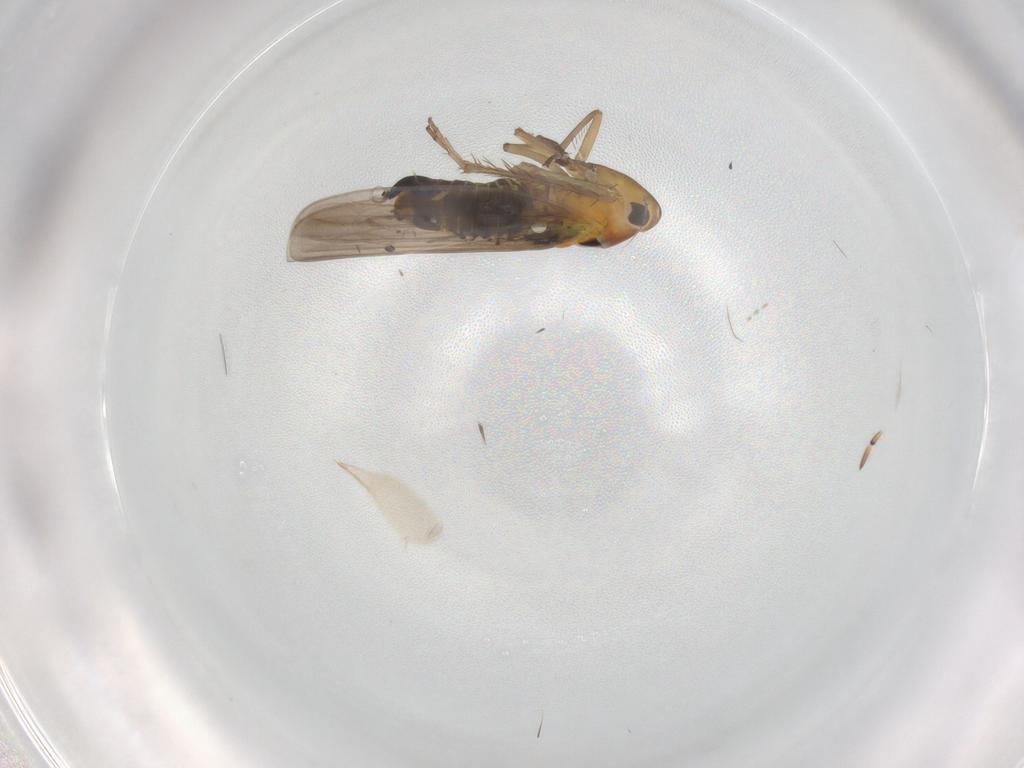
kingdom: Animalia
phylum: Arthropoda
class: Insecta
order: Hemiptera
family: Cicadellidae
